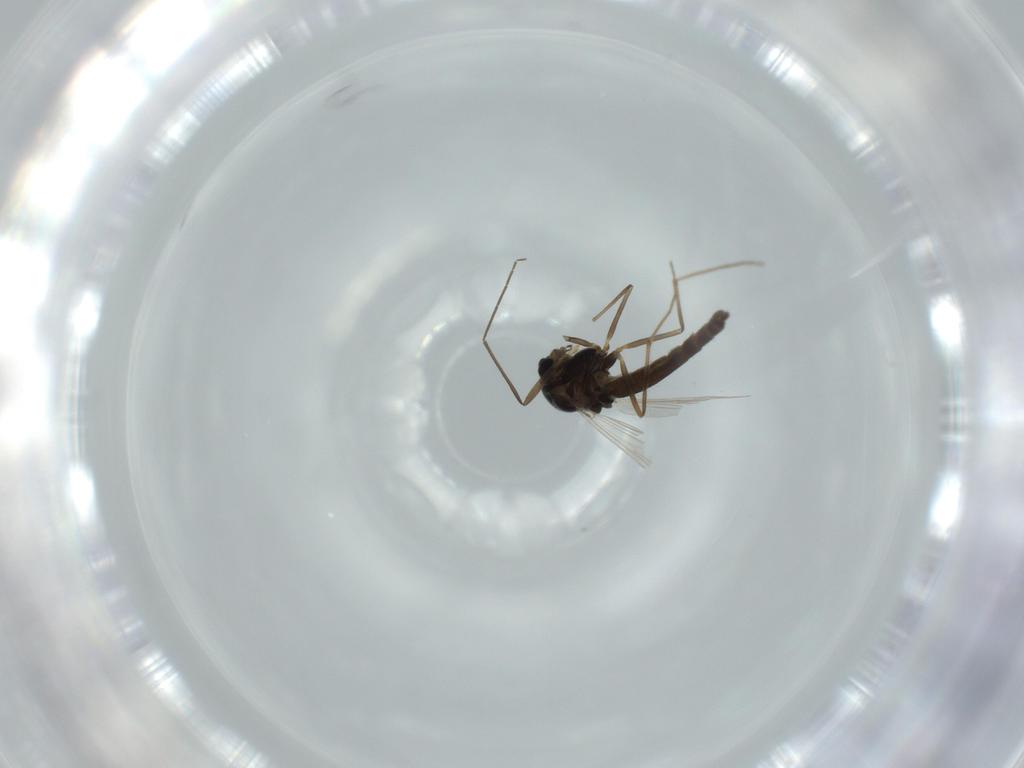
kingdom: Animalia
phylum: Arthropoda
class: Insecta
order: Diptera
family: Chironomidae
